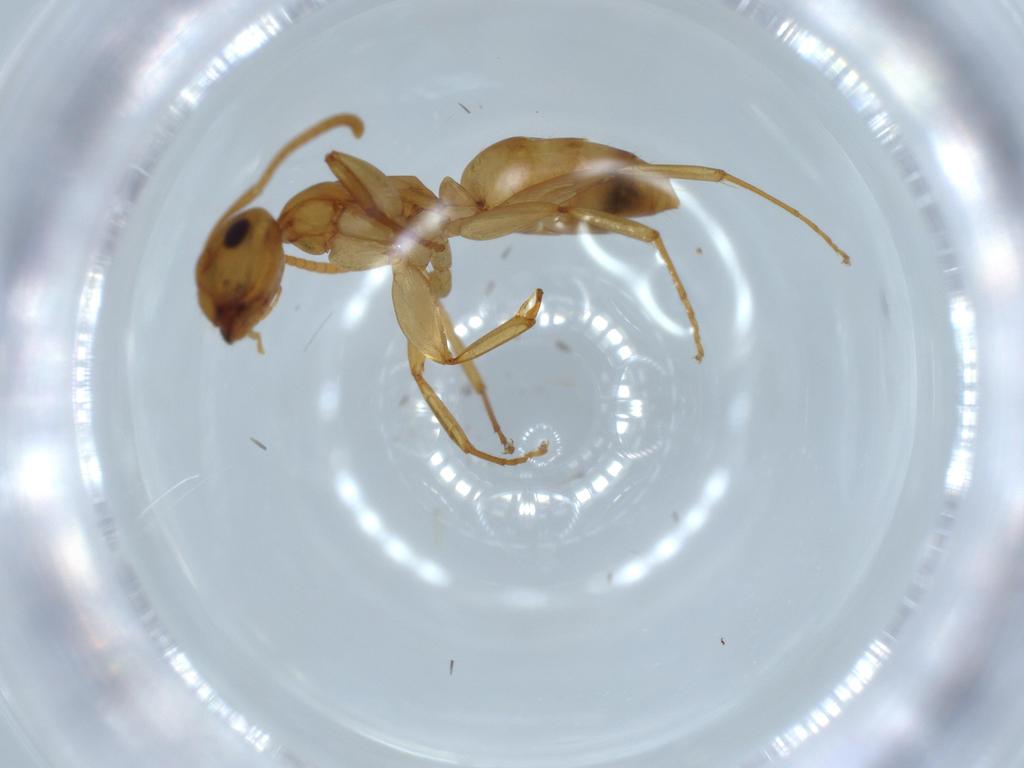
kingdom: Animalia
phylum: Arthropoda
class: Insecta
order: Hymenoptera
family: Formicidae
